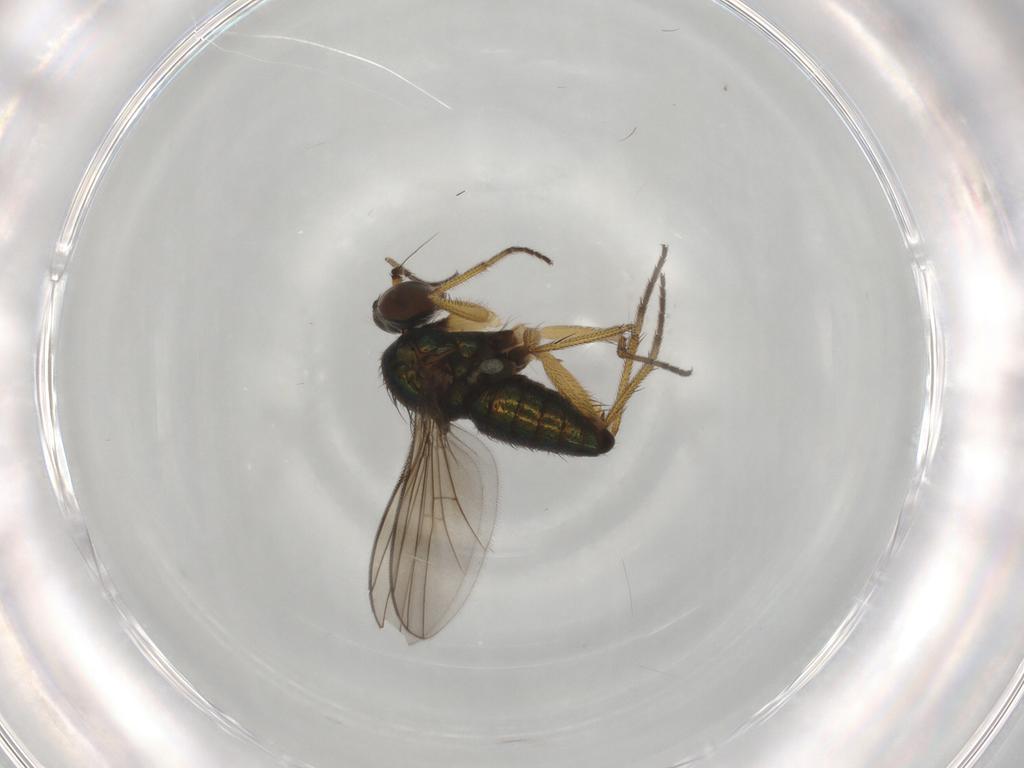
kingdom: Animalia
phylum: Arthropoda
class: Insecta
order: Diptera
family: Dolichopodidae
